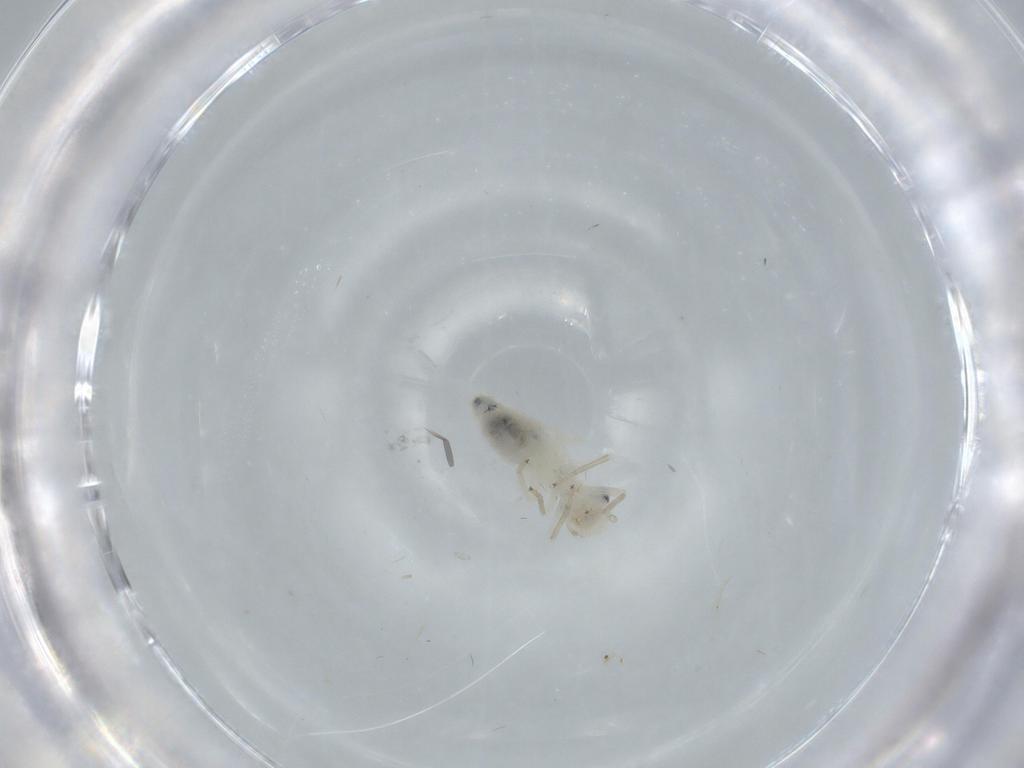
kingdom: Animalia
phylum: Arthropoda
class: Insecta
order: Psocodea
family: Caeciliusidae
